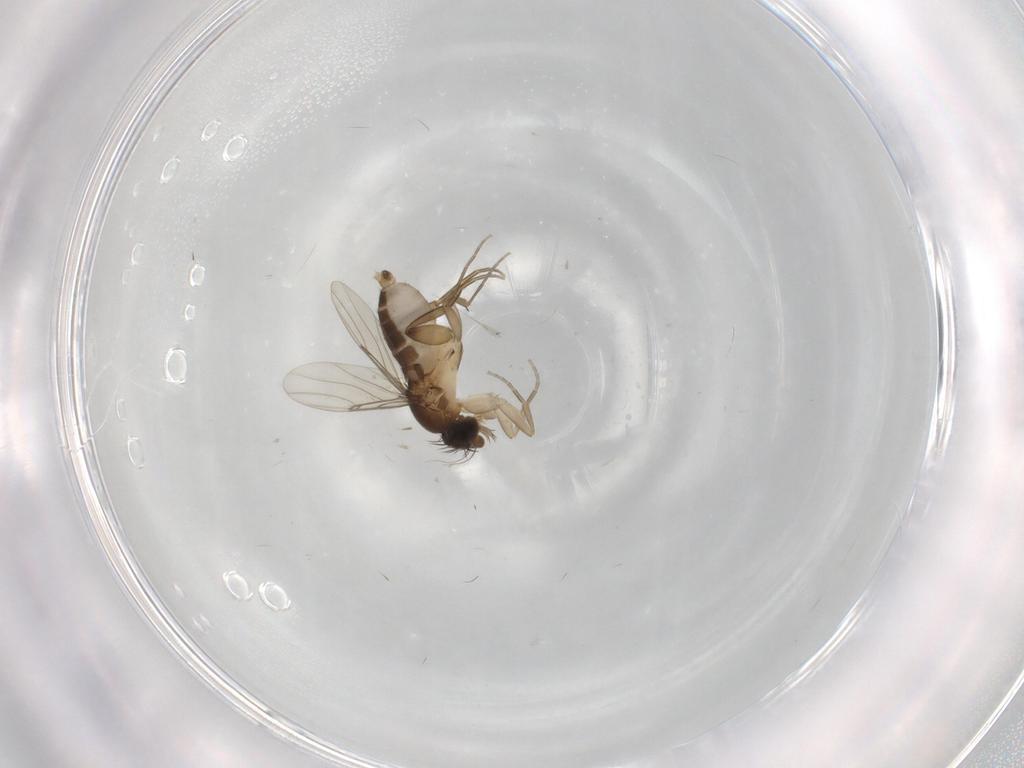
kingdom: Animalia
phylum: Arthropoda
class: Insecta
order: Diptera
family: Phoridae
